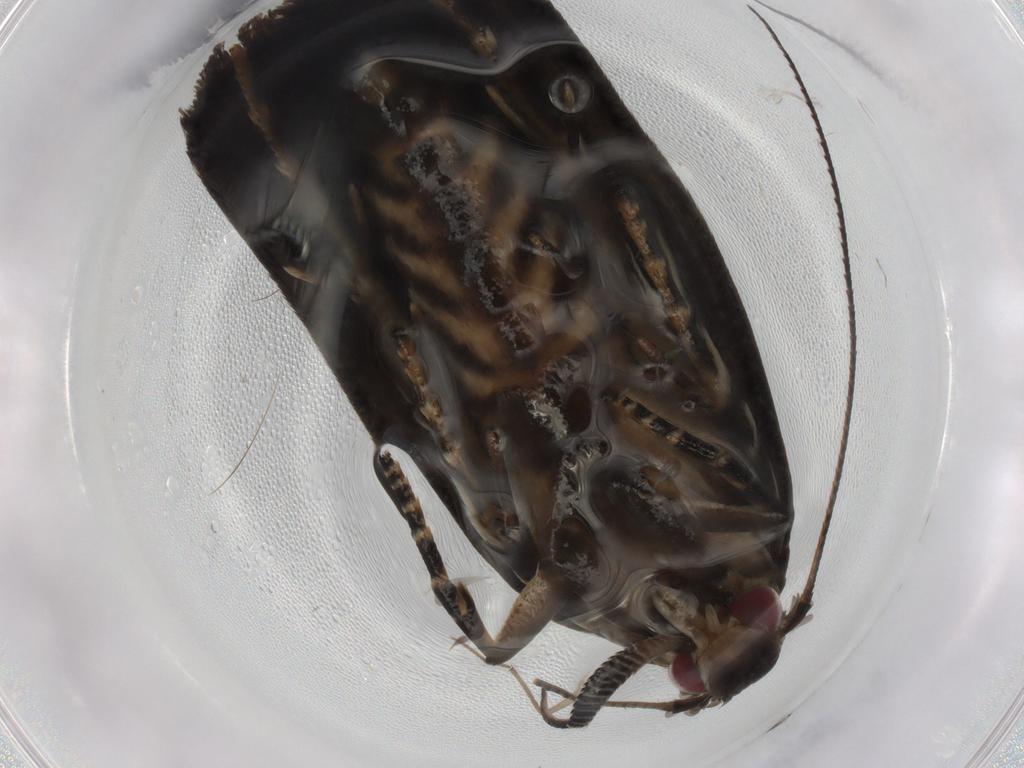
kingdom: Animalia
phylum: Arthropoda
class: Insecta
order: Lepidoptera
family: Gelechiidae
